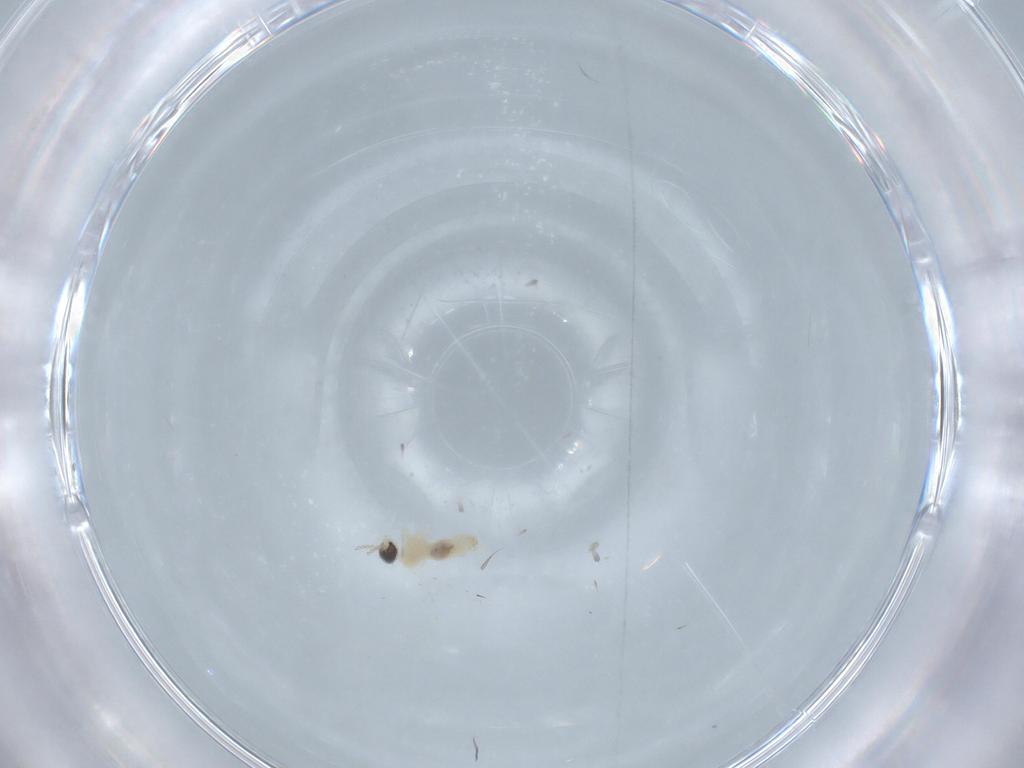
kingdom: Animalia
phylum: Arthropoda
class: Insecta
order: Diptera
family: Cecidomyiidae
